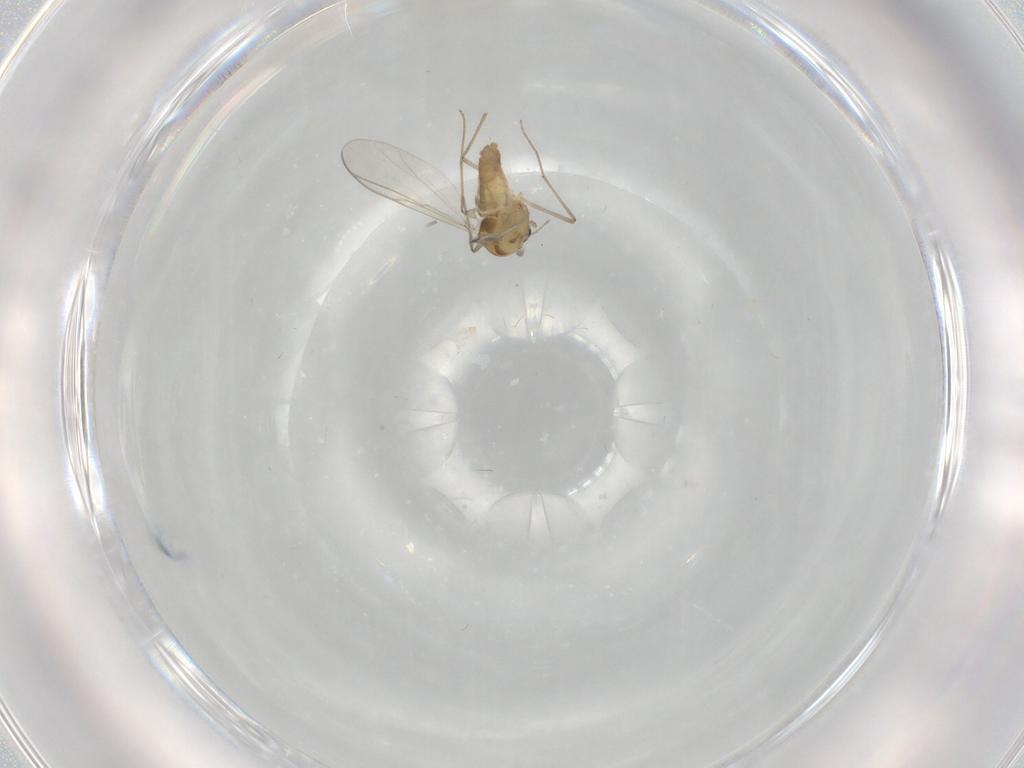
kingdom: Animalia
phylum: Arthropoda
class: Insecta
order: Diptera
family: Chironomidae
